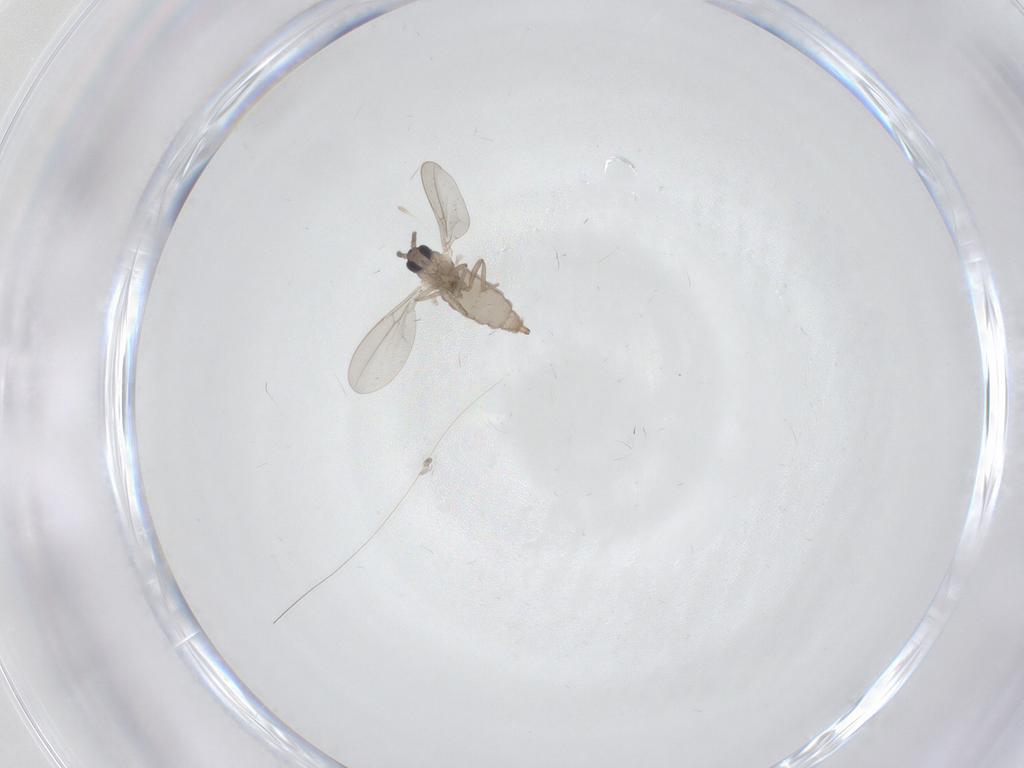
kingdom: Animalia
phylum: Arthropoda
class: Insecta
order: Diptera
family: Cecidomyiidae
